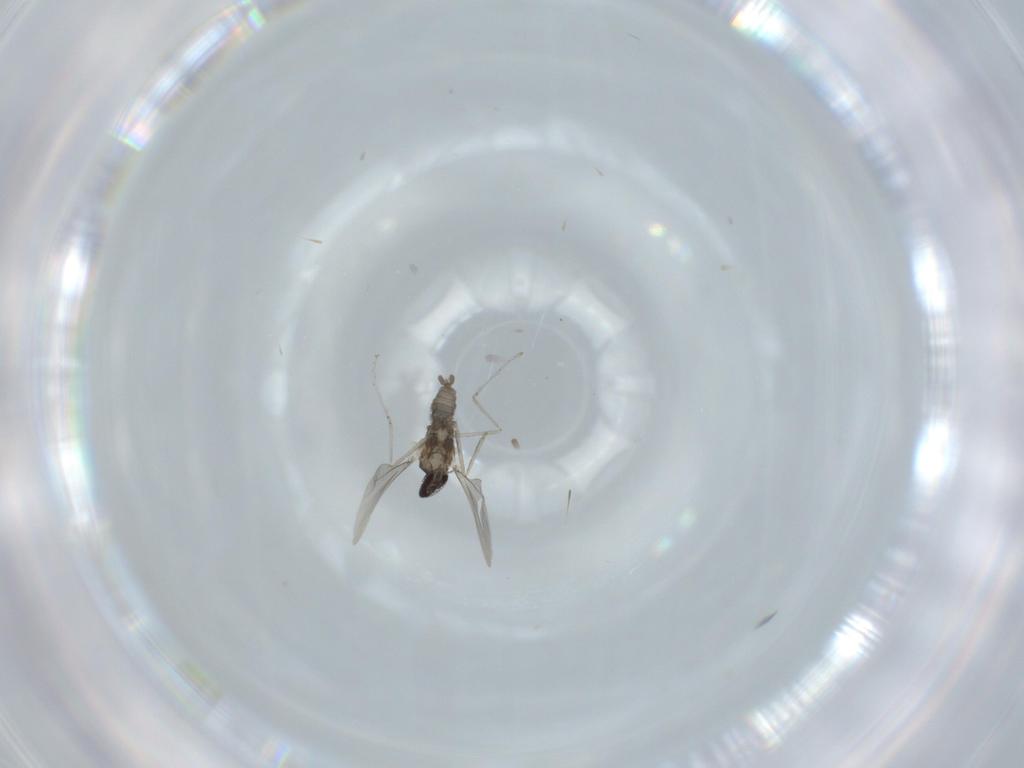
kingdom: Animalia
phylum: Arthropoda
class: Insecta
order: Diptera
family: Cecidomyiidae
